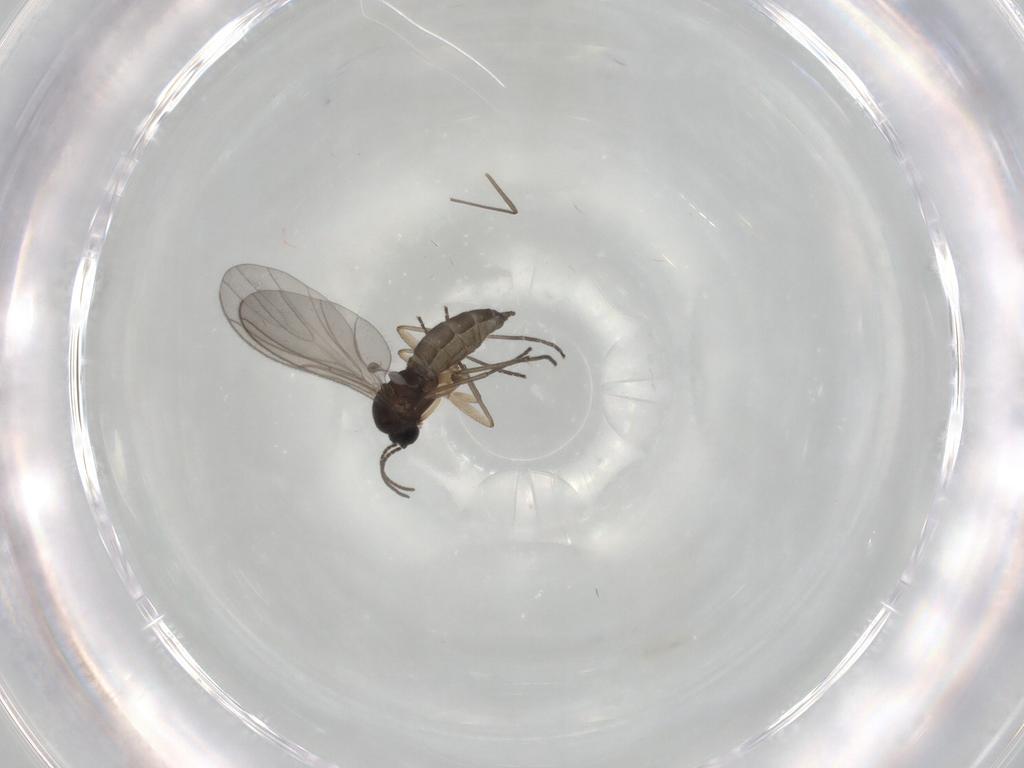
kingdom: Animalia
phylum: Arthropoda
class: Insecta
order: Diptera
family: Sciaridae
